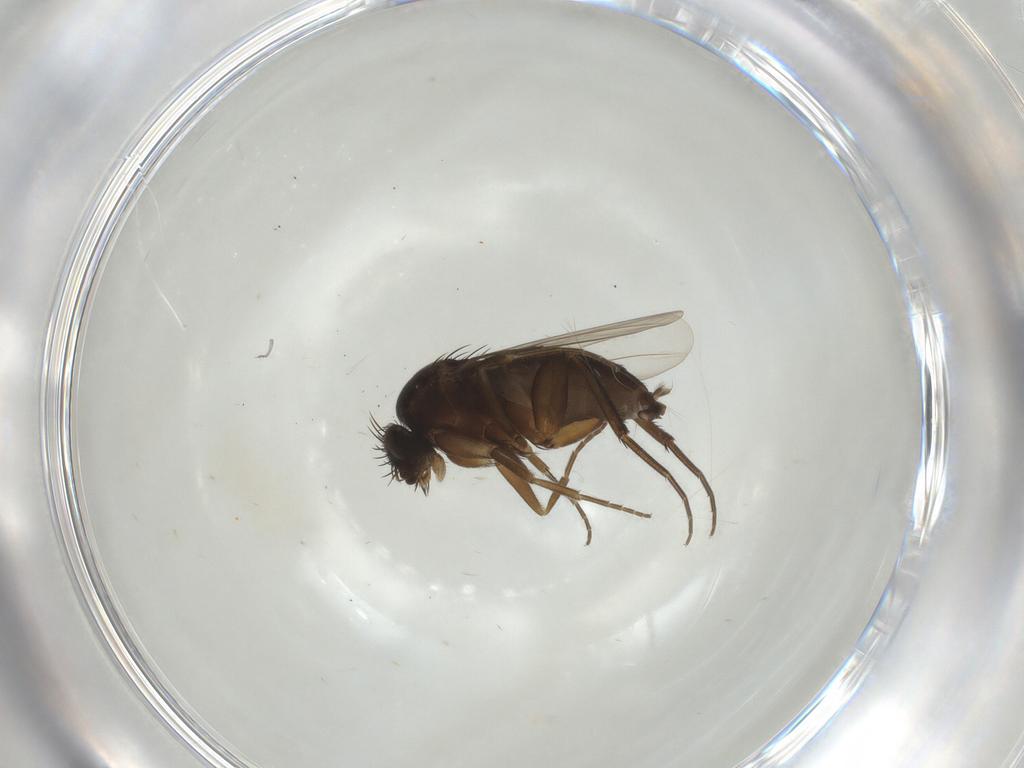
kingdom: Animalia
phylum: Arthropoda
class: Insecta
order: Diptera
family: Phoridae
